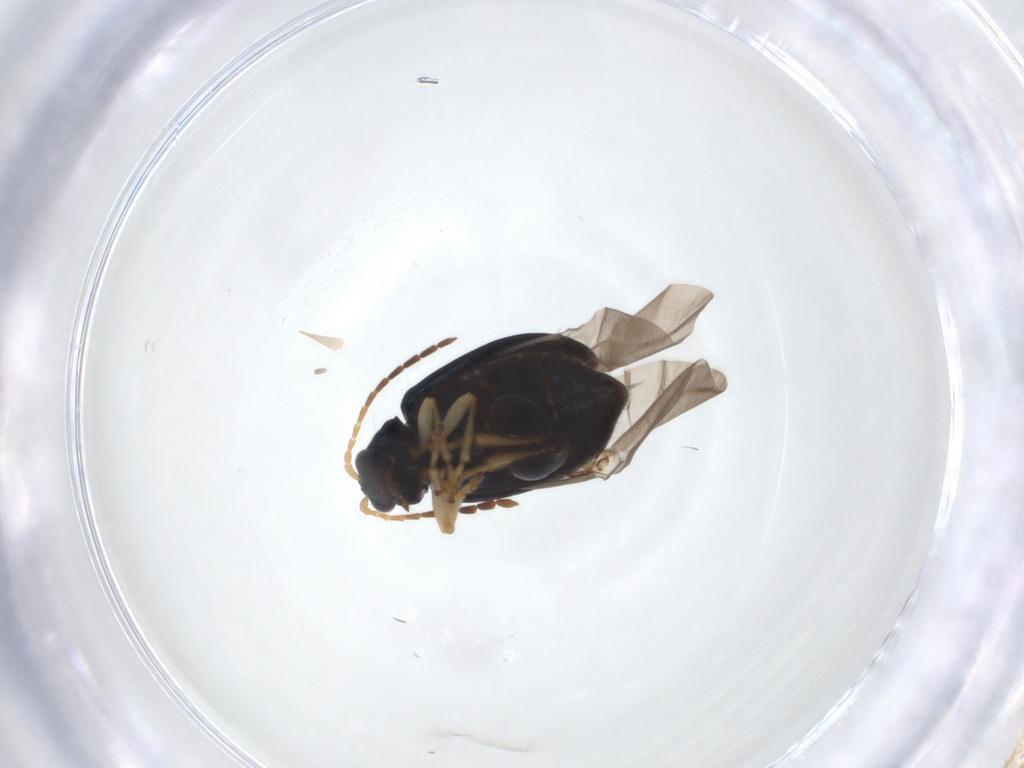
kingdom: Animalia
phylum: Arthropoda
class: Insecta
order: Coleoptera
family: Chrysomelidae
